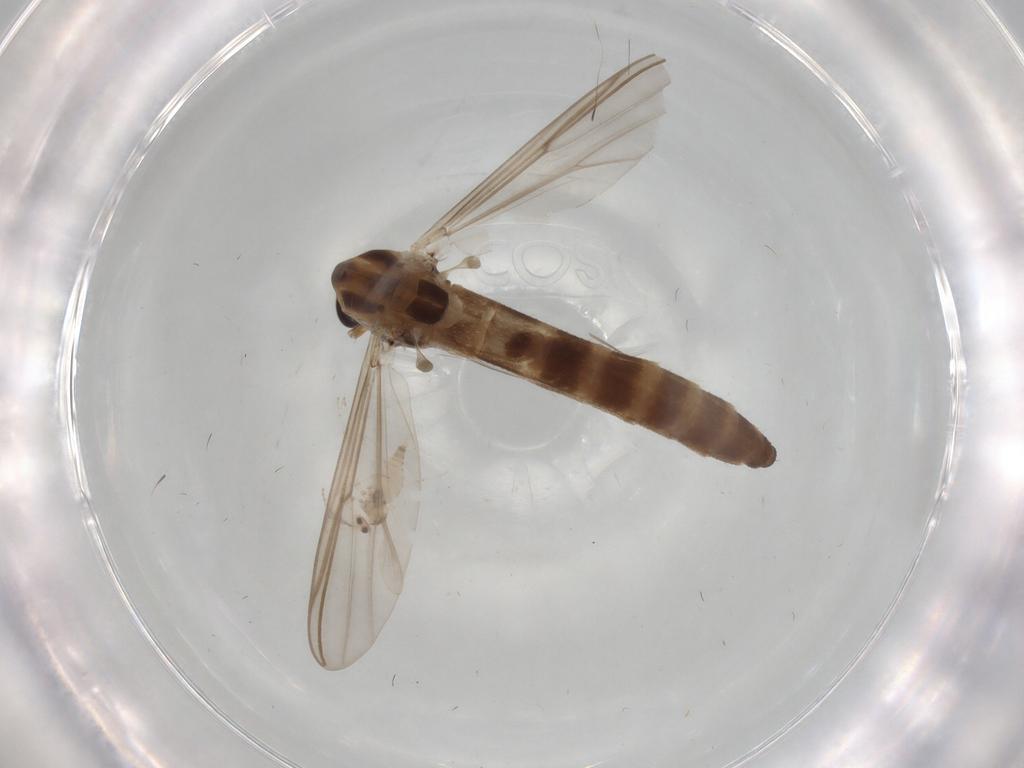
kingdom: Animalia
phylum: Arthropoda
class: Insecta
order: Diptera
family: Chironomidae
